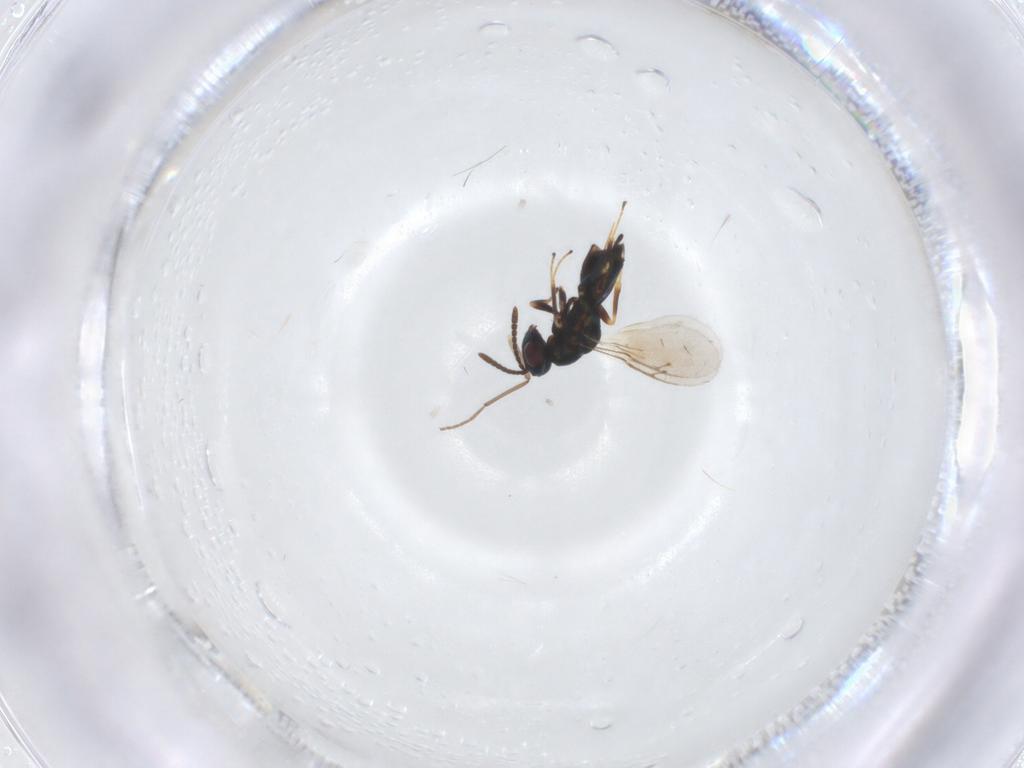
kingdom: Animalia
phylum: Arthropoda
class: Insecta
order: Hymenoptera
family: Pteromalidae
